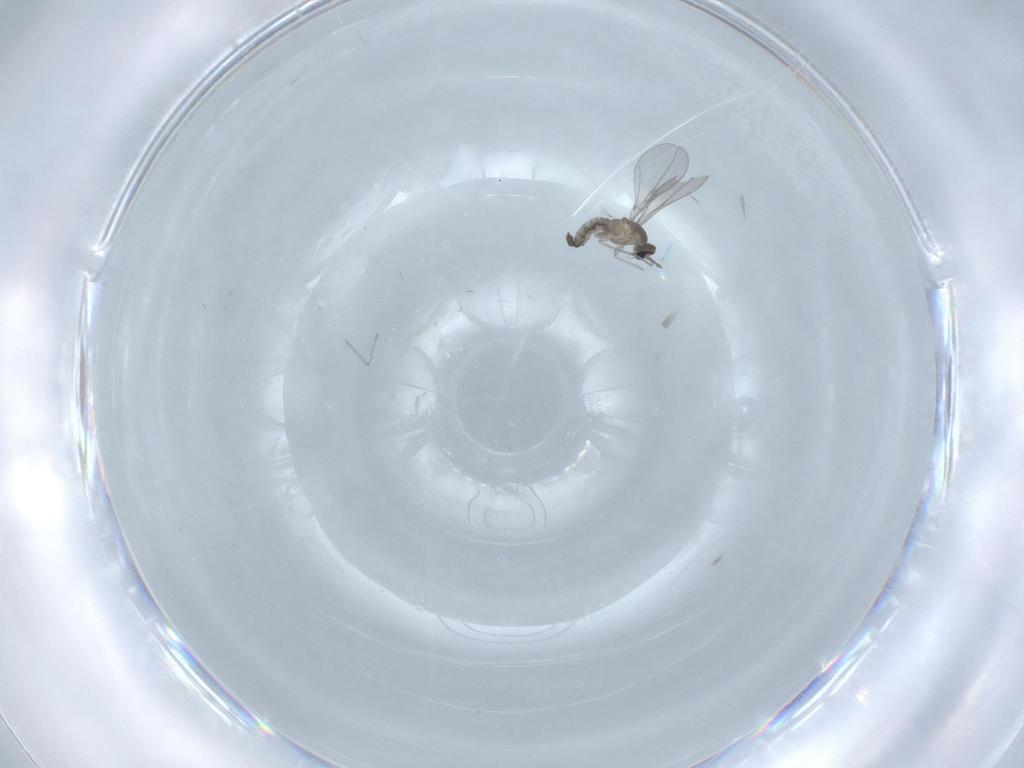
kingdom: Animalia
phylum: Arthropoda
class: Insecta
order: Diptera
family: Cecidomyiidae
